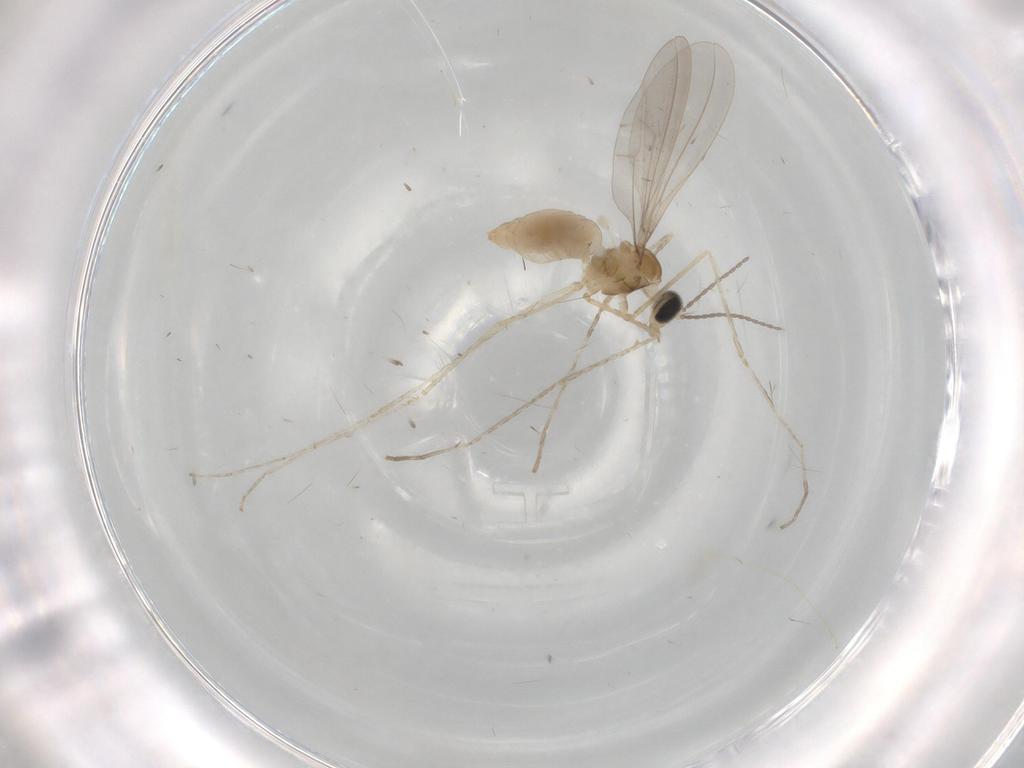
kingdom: Animalia
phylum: Arthropoda
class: Insecta
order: Diptera
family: Cecidomyiidae
